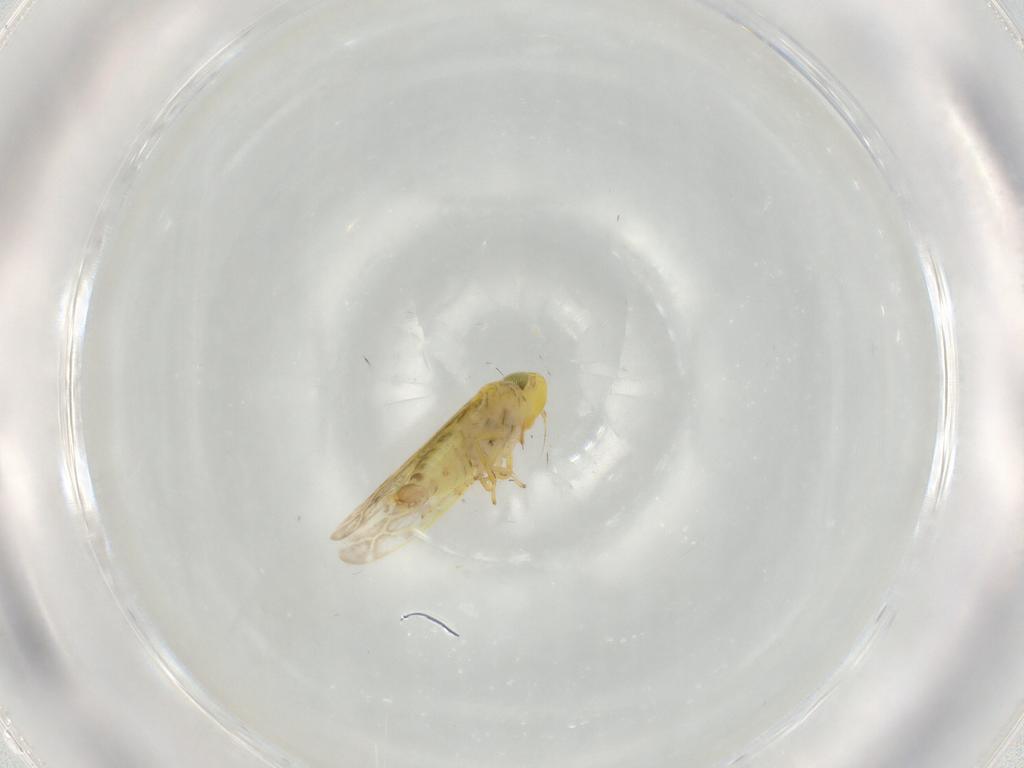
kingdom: Animalia
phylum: Arthropoda
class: Insecta
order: Hemiptera
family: Cicadellidae
